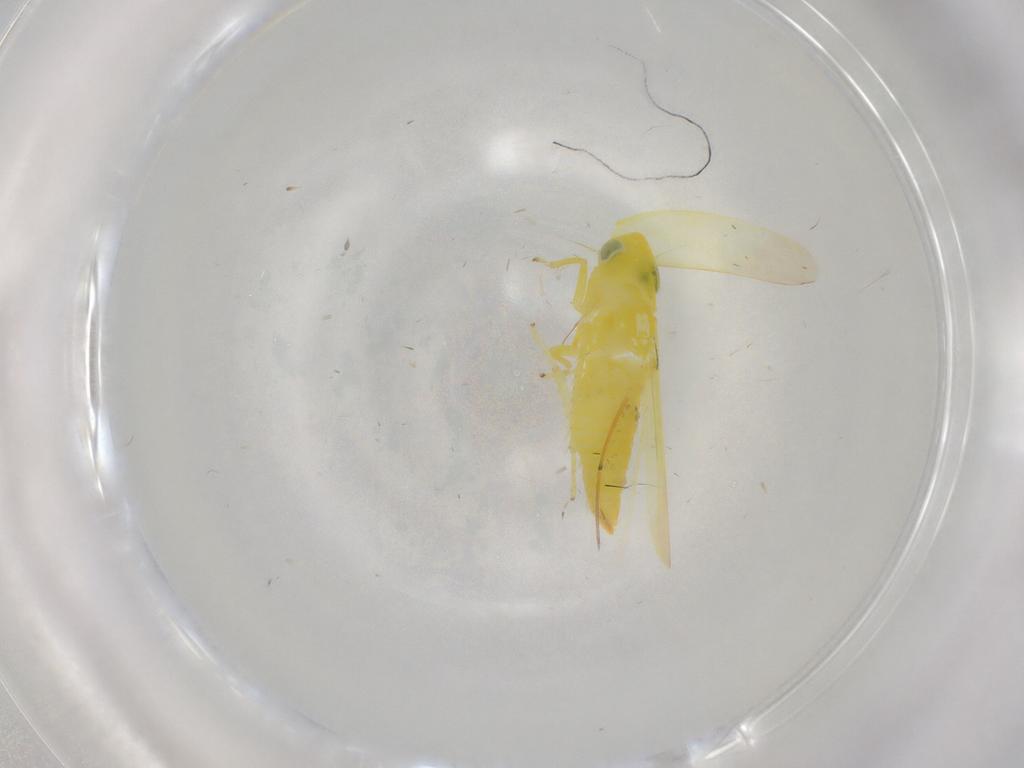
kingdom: Animalia
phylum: Arthropoda
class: Insecta
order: Hemiptera
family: Cicadellidae
